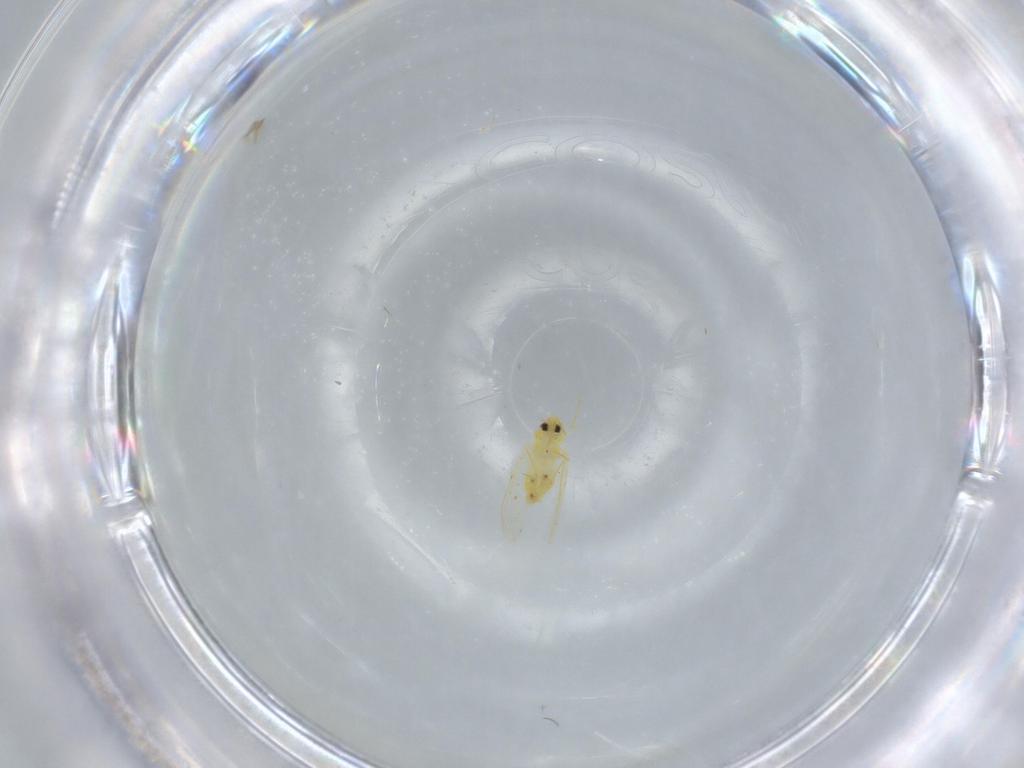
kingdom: Animalia
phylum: Arthropoda
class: Insecta
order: Hemiptera
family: Aleyrodidae
